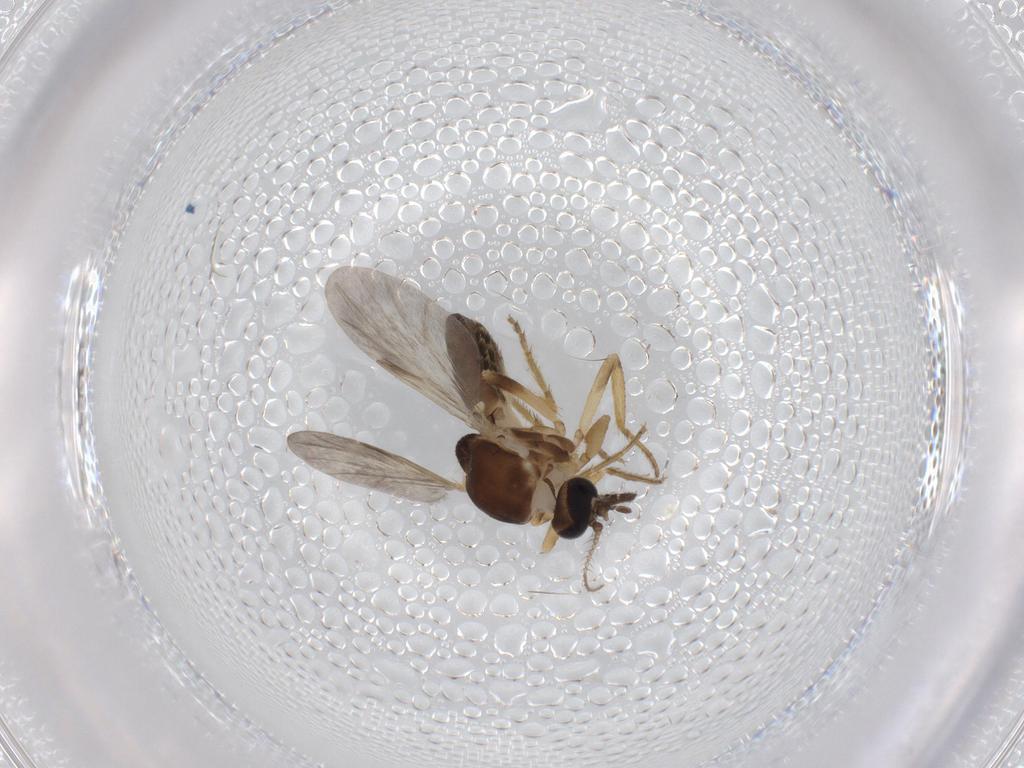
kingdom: Animalia
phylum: Arthropoda
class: Insecta
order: Diptera
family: Cecidomyiidae
